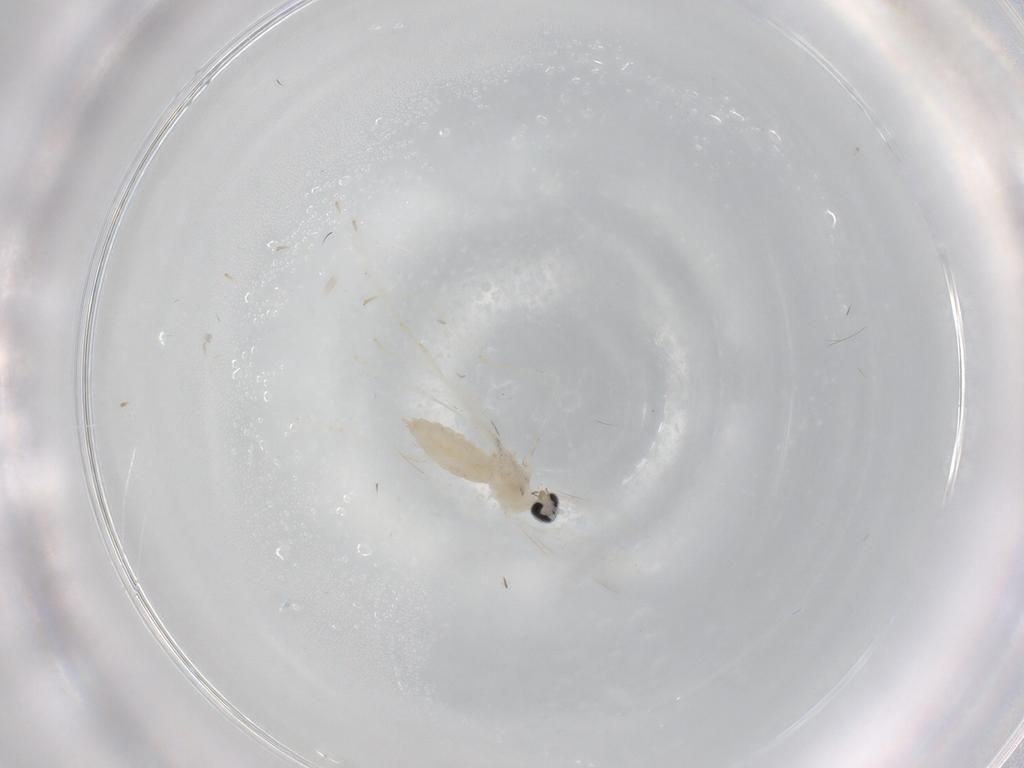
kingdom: Animalia
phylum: Arthropoda
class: Insecta
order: Diptera
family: Cecidomyiidae
